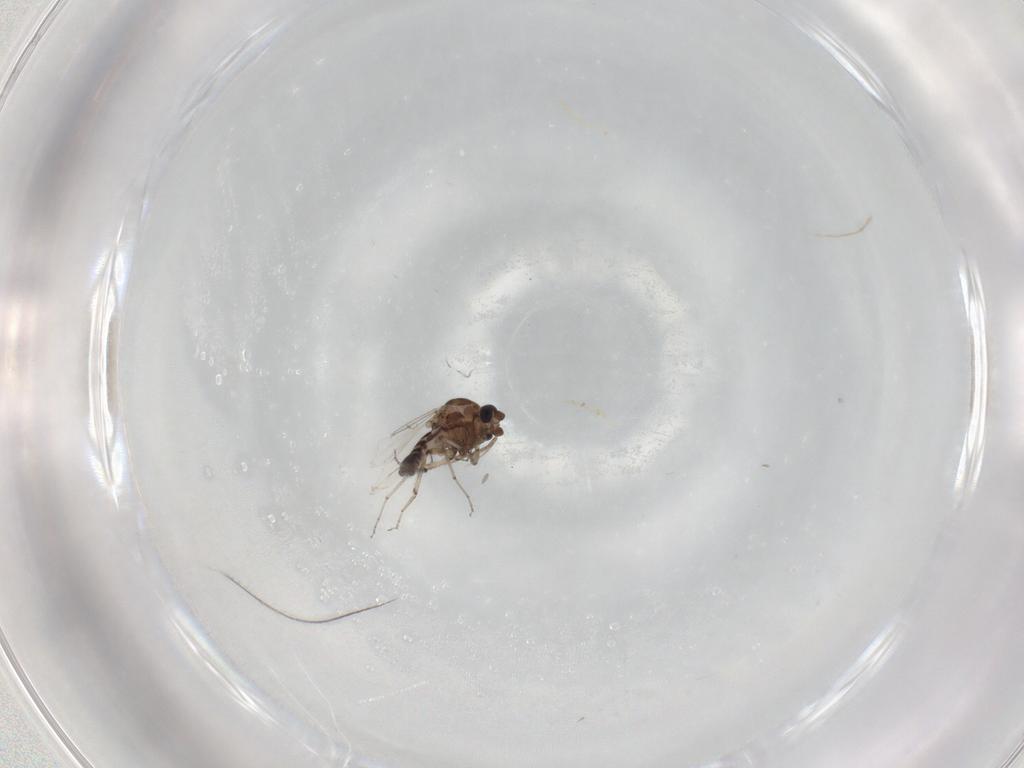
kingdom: Animalia
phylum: Arthropoda
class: Insecta
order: Diptera
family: Ceratopogonidae
